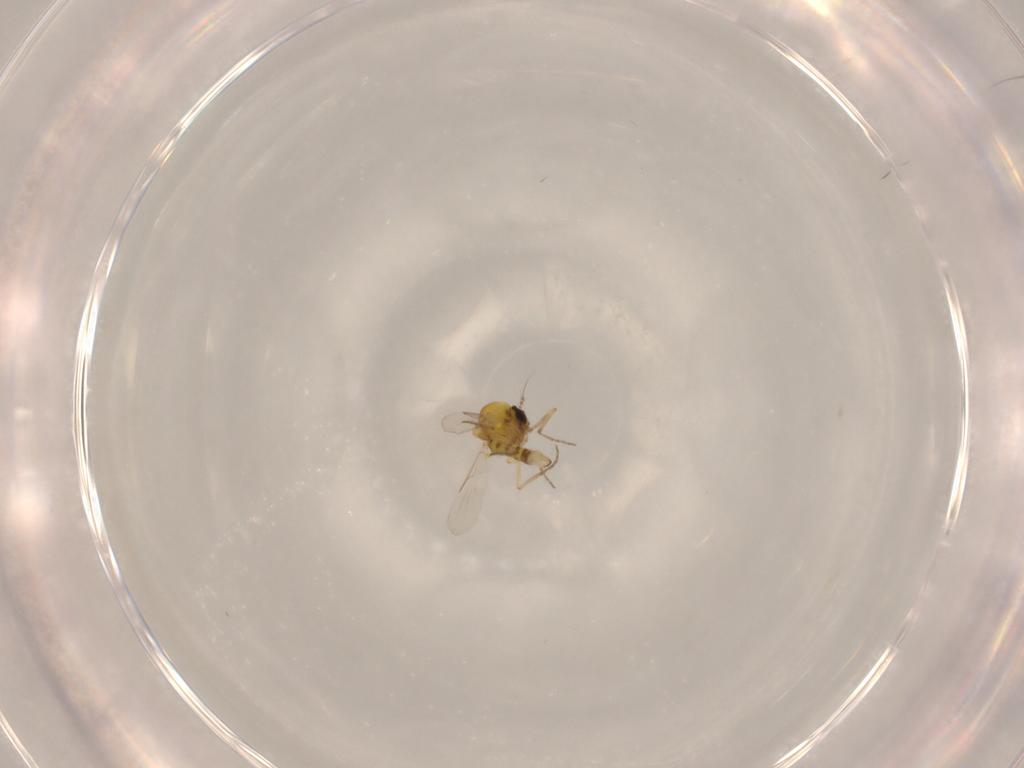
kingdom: Animalia
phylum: Arthropoda
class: Insecta
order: Diptera
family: Ceratopogonidae
